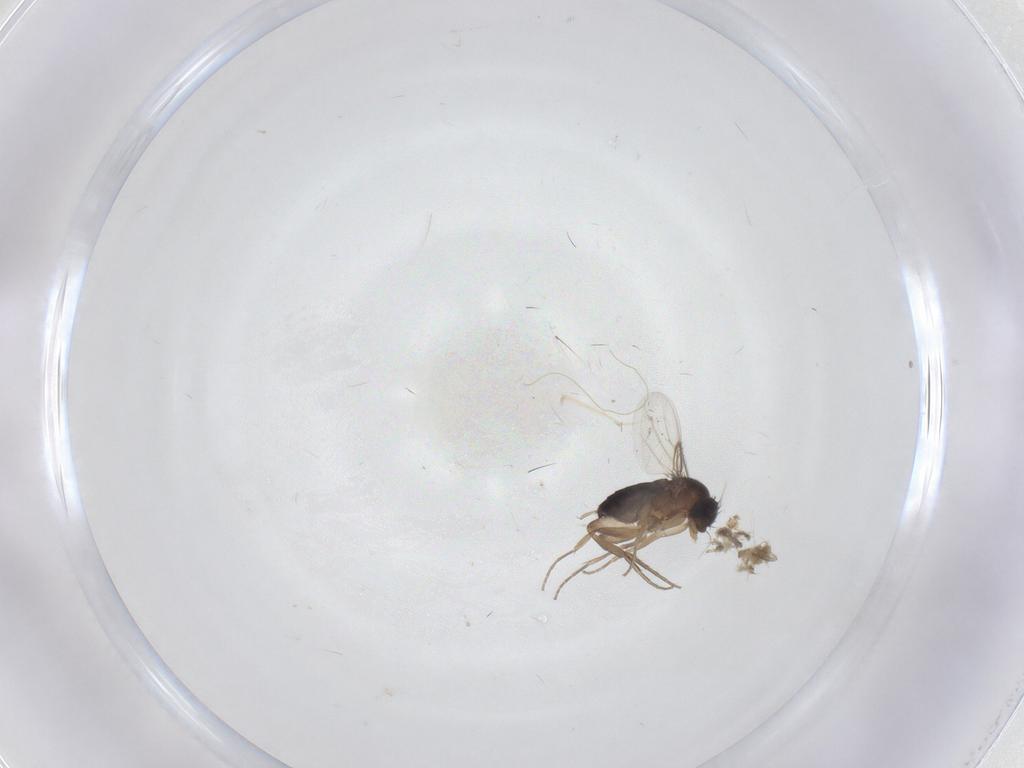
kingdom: Animalia
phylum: Arthropoda
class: Insecta
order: Diptera
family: Phoridae
